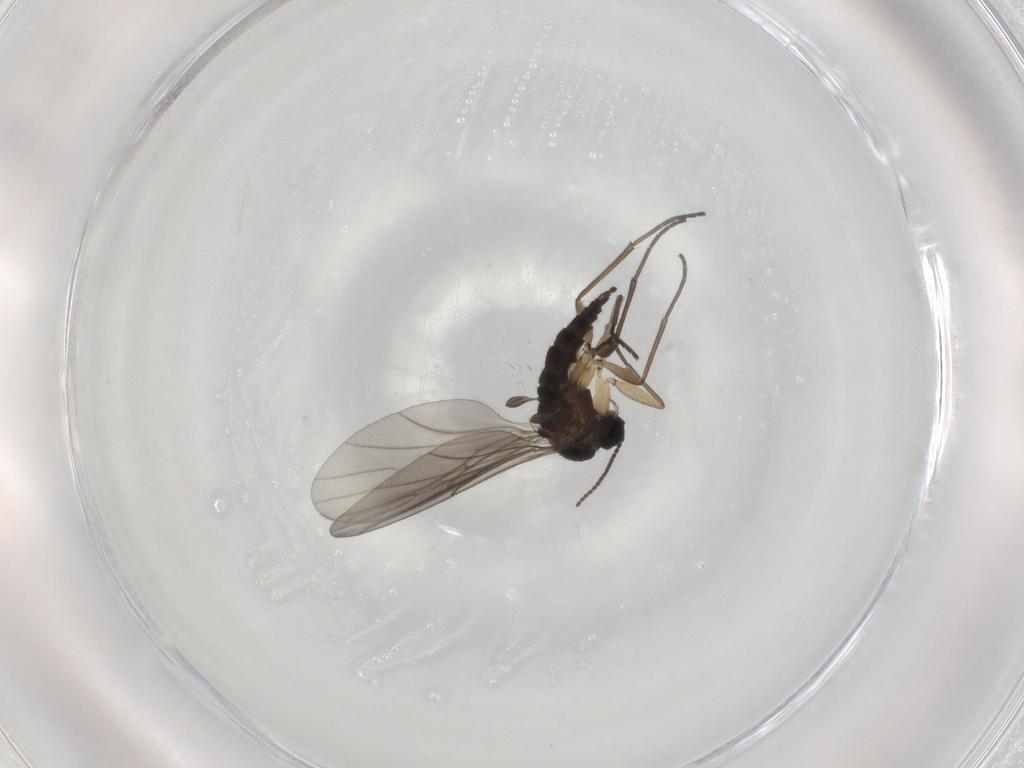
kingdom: Animalia
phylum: Arthropoda
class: Insecta
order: Diptera
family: Sciaridae
